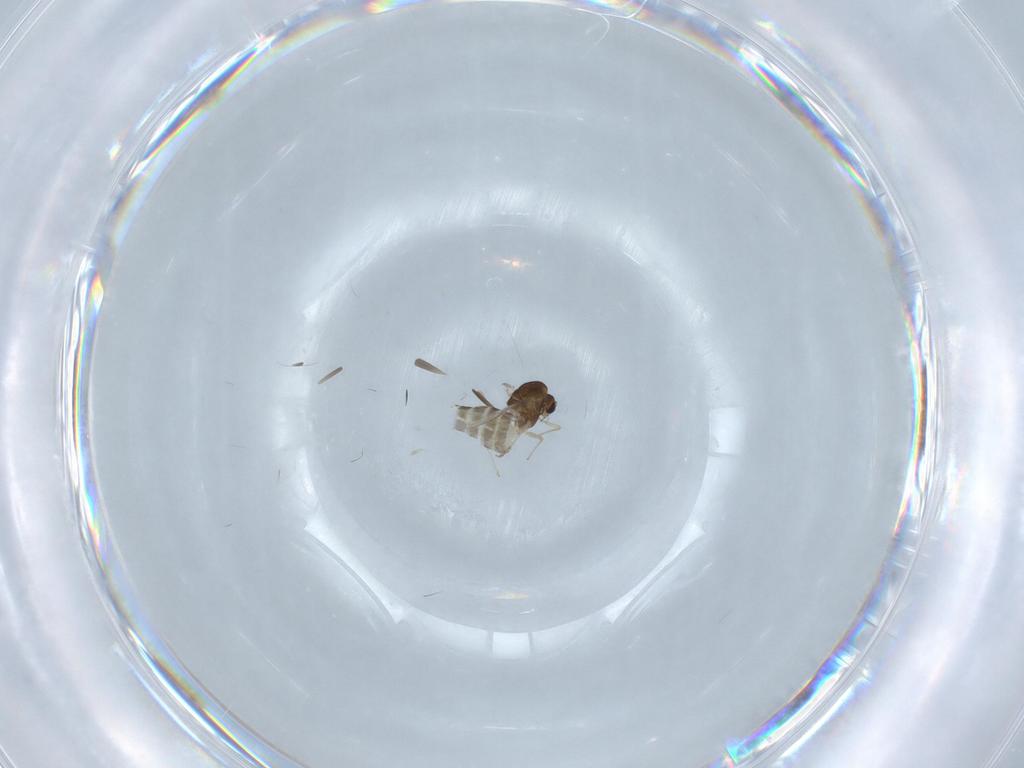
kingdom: Animalia
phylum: Arthropoda
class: Insecta
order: Diptera
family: Chironomidae
